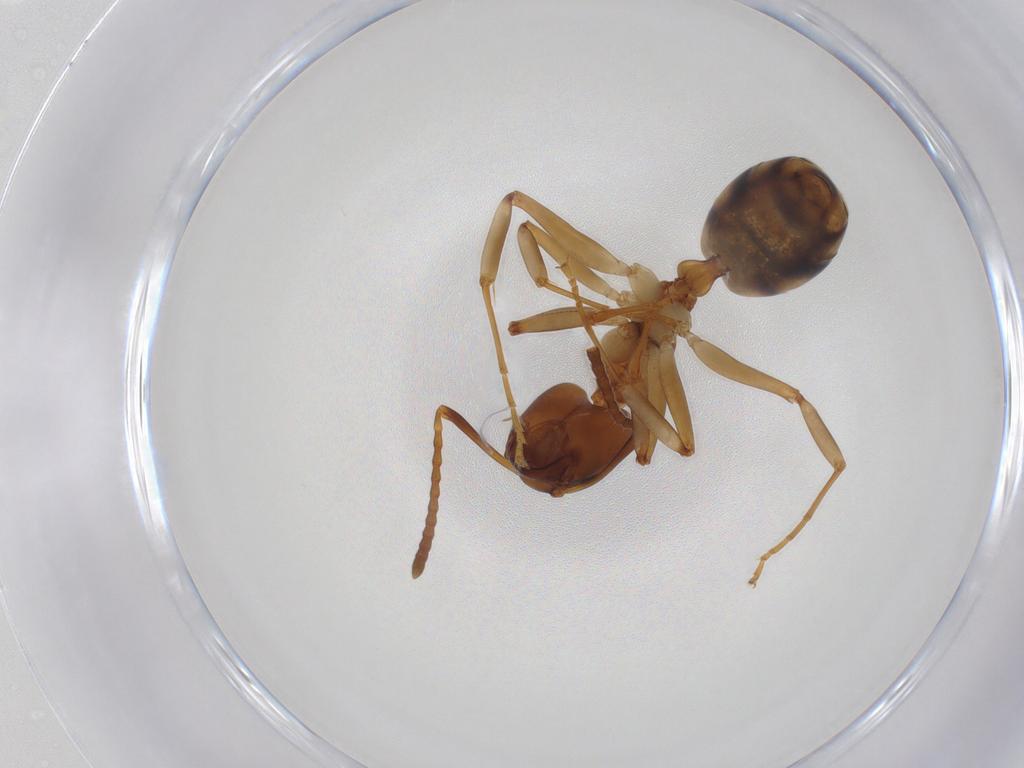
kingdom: Animalia
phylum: Arthropoda
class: Insecta
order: Hymenoptera
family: Formicidae
